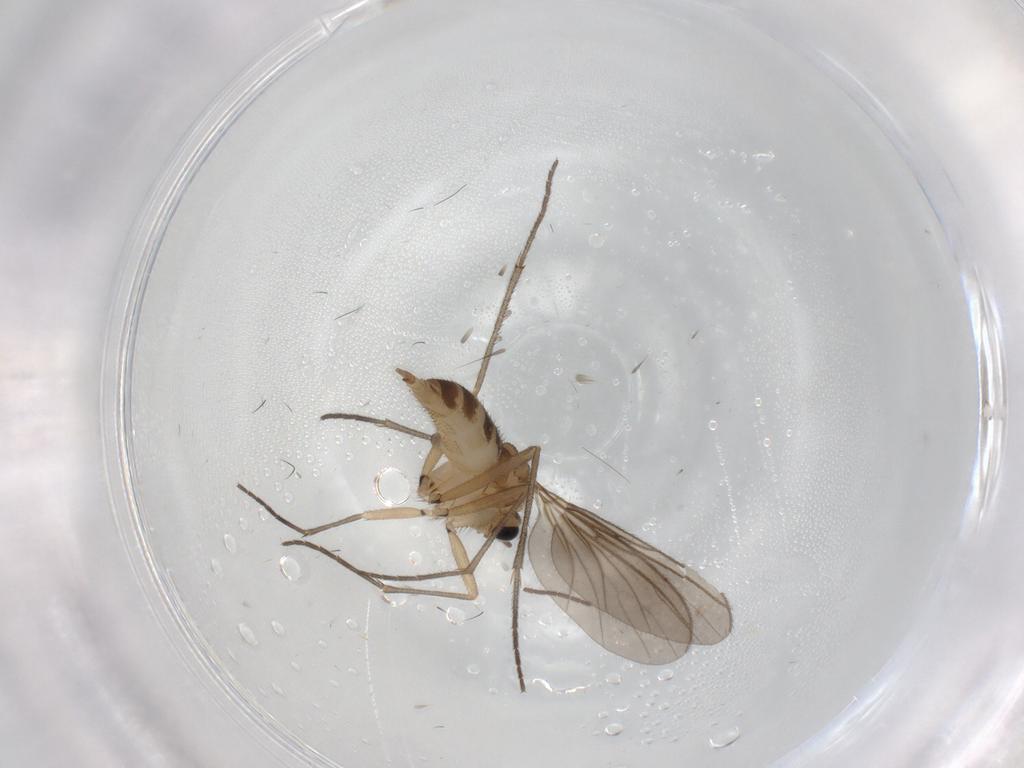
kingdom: Animalia
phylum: Arthropoda
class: Insecta
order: Diptera
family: Sciaridae
